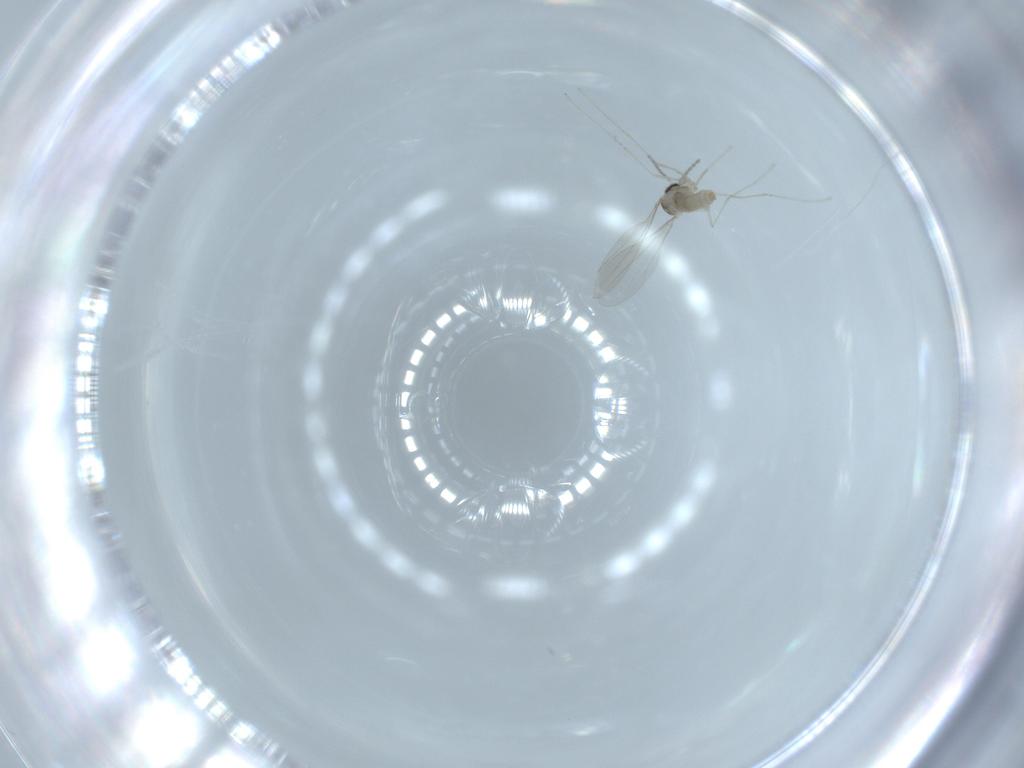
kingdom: Animalia
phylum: Arthropoda
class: Insecta
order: Diptera
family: Cecidomyiidae
